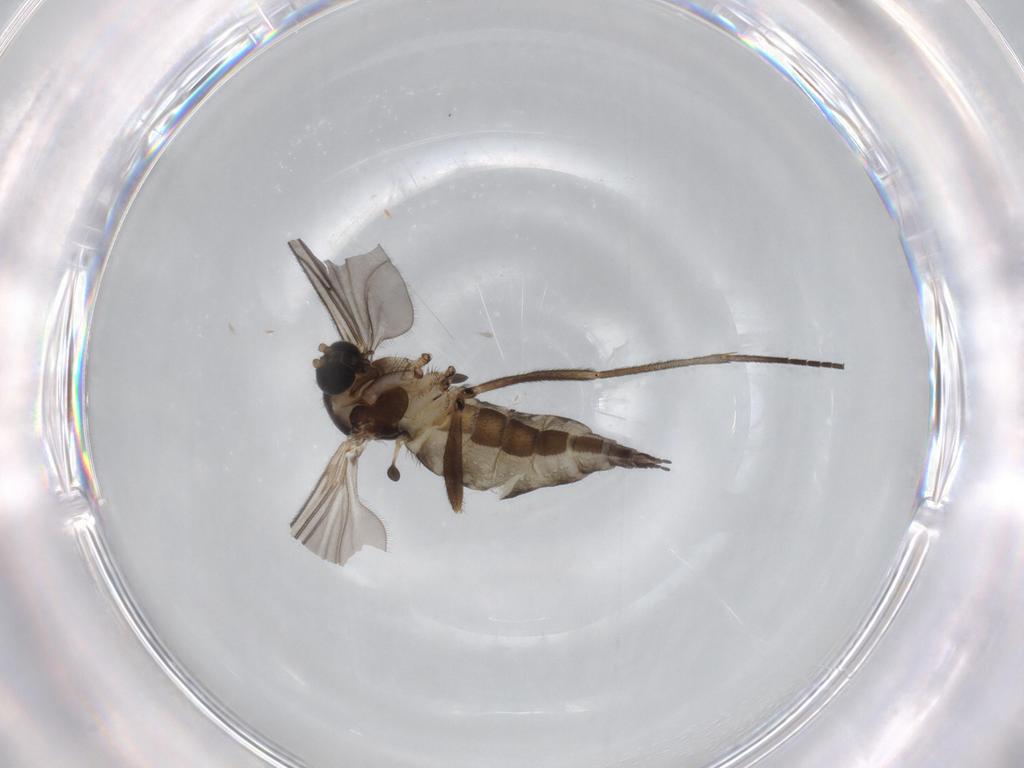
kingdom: Animalia
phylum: Arthropoda
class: Insecta
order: Diptera
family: Sciaridae
